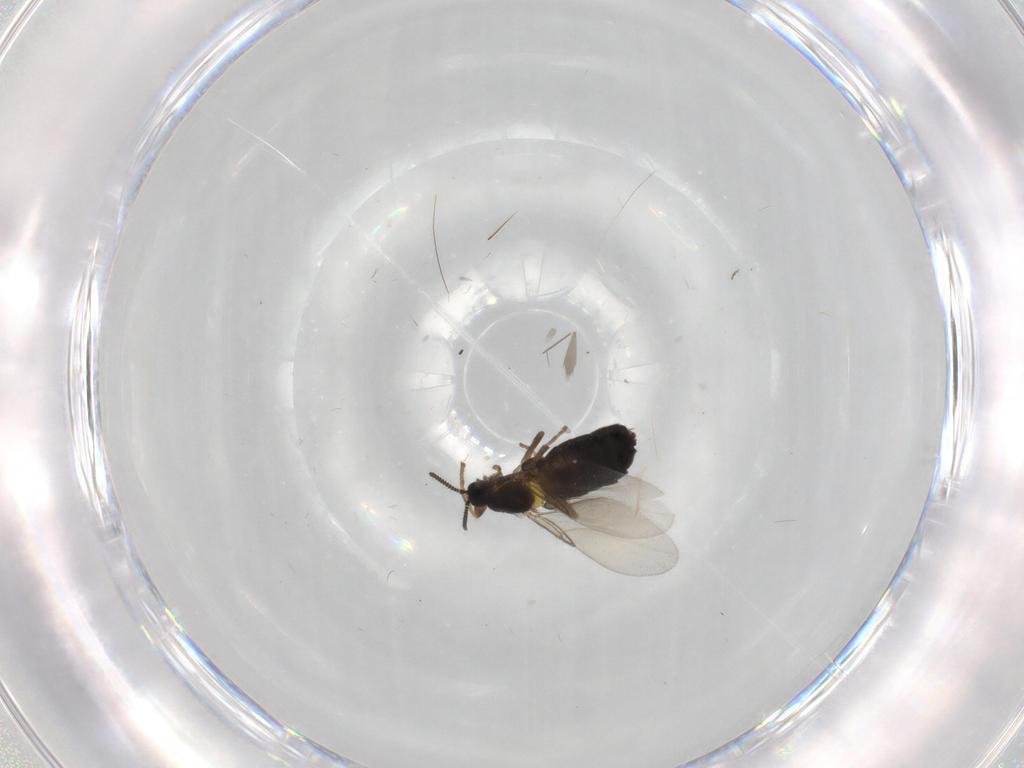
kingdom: Animalia
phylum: Arthropoda
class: Insecta
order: Diptera
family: Scatopsidae
